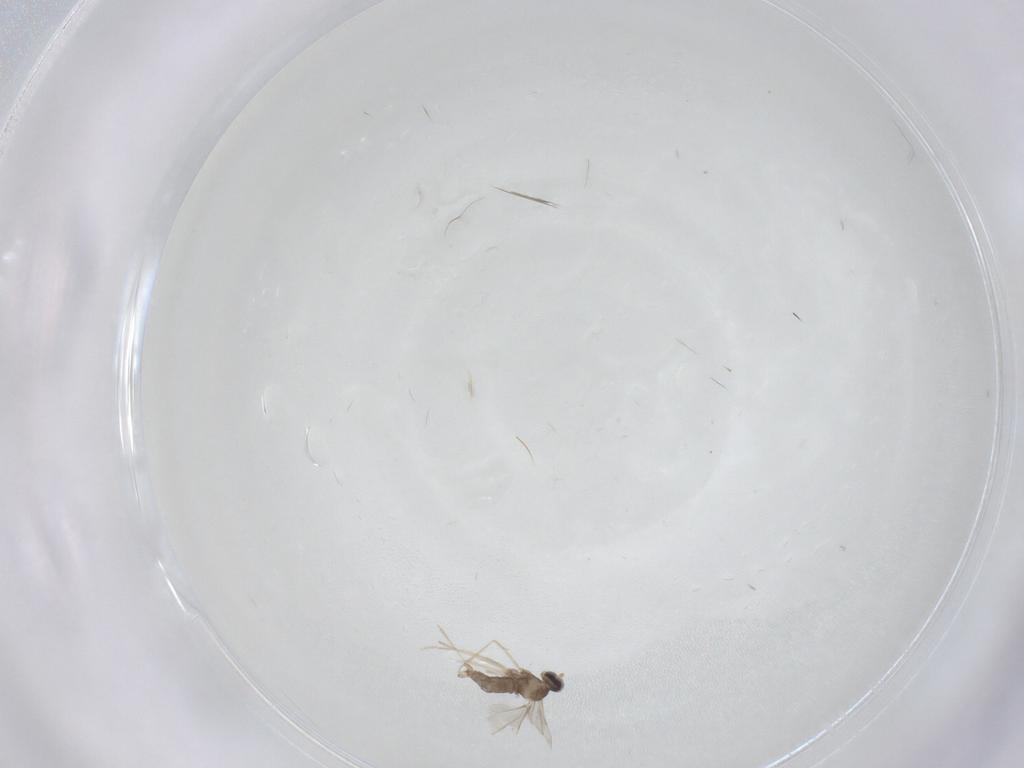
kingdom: Animalia
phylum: Arthropoda
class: Insecta
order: Diptera
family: Cecidomyiidae
